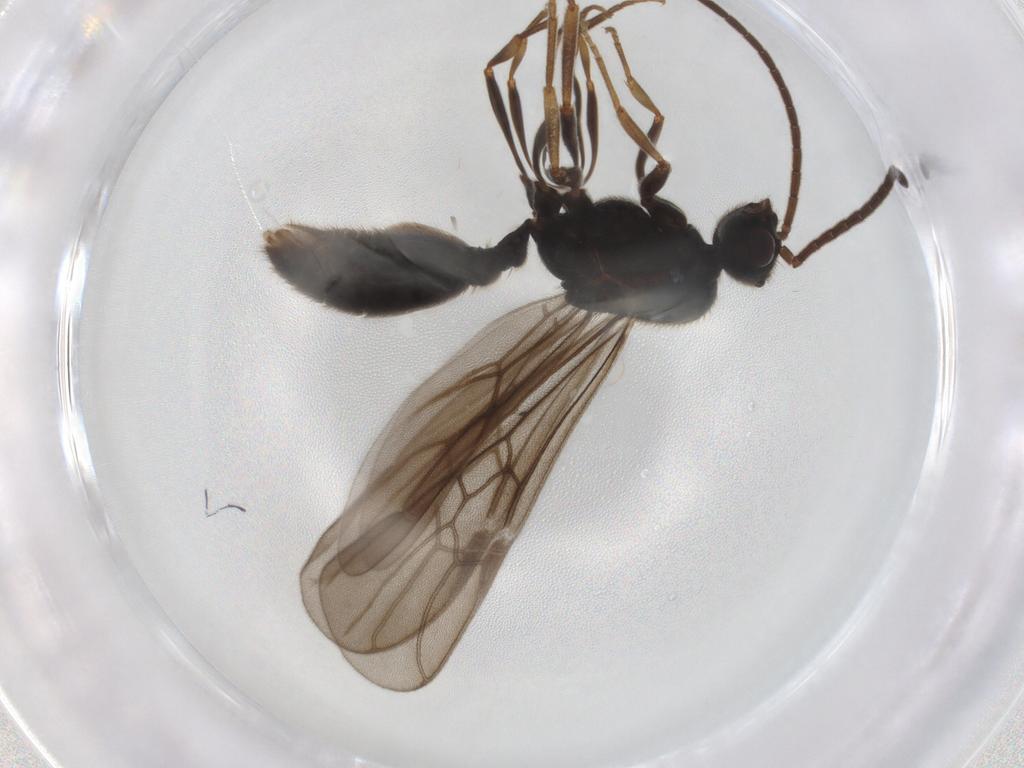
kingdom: Animalia
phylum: Arthropoda
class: Insecta
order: Hymenoptera
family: Formicidae
